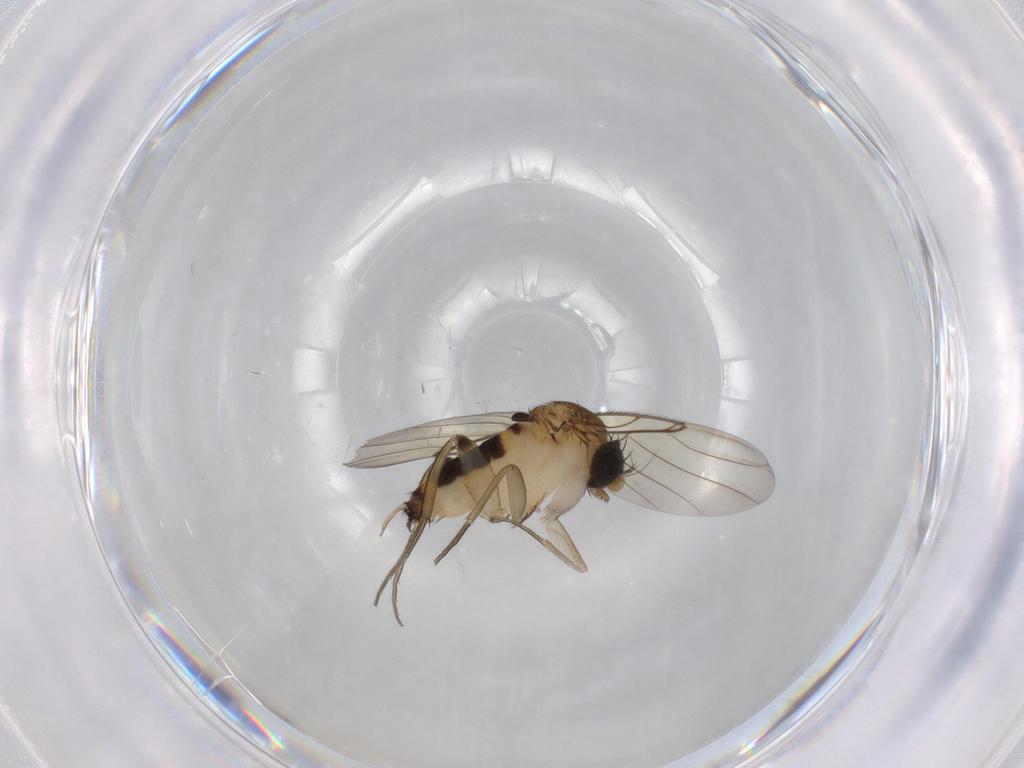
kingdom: Animalia
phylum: Arthropoda
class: Insecta
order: Diptera
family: Phoridae
